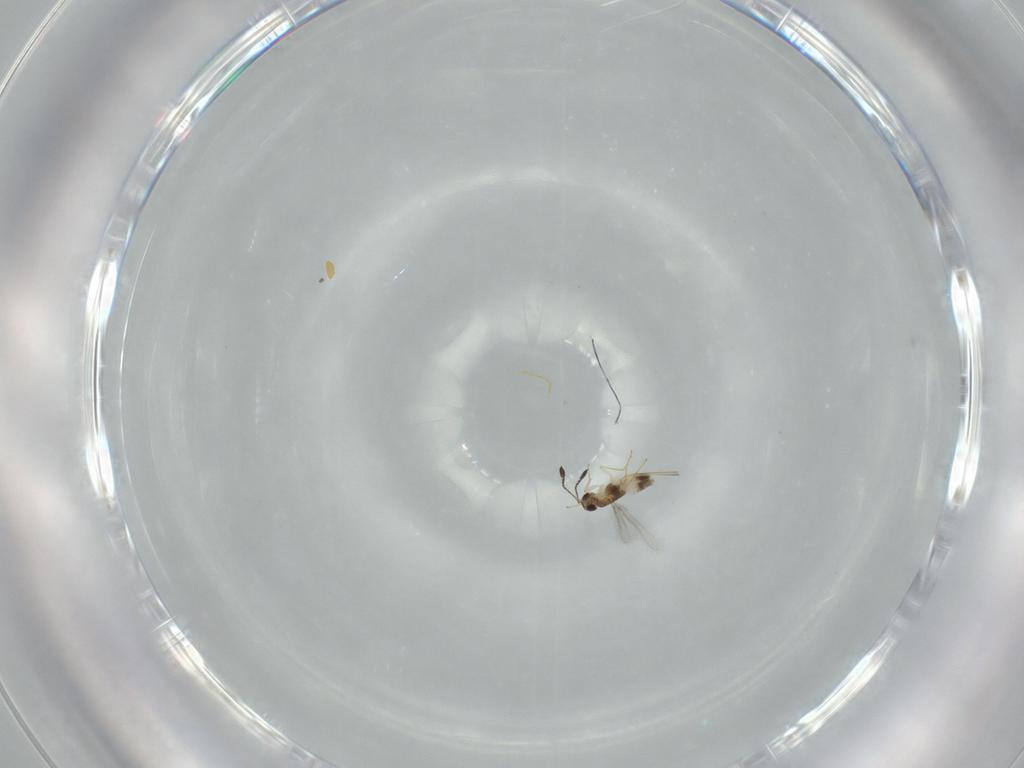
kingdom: Animalia
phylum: Arthropoda
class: Insecta
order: Hymenoptera
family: Mymaridae
